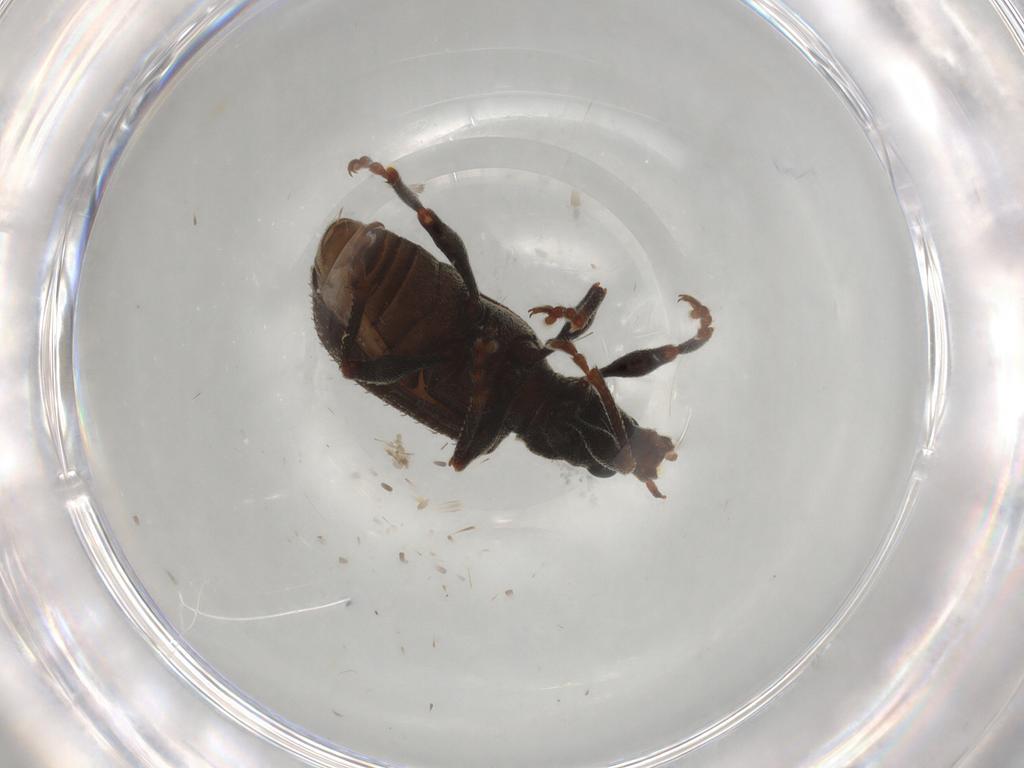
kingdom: Animalia
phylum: Arthropoda
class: Insecta
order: Coleoptera
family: Curculionidae
